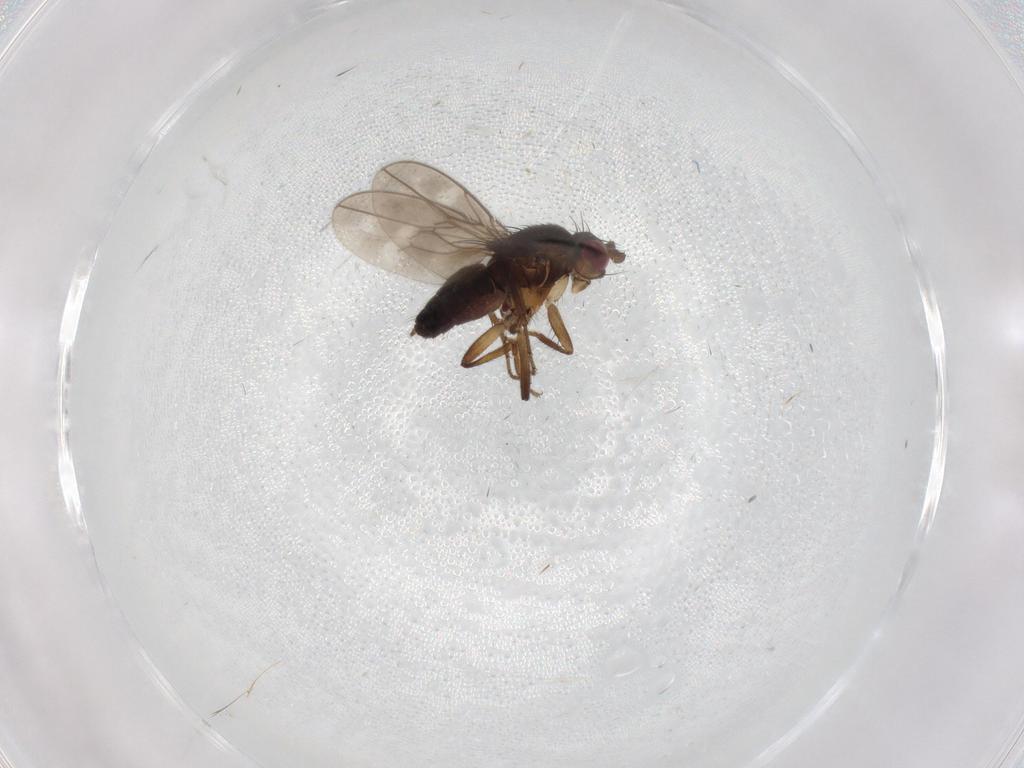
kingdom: Animalia
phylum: Arthropoda
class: Insecta
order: Diptera
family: Sphaeroceridae
